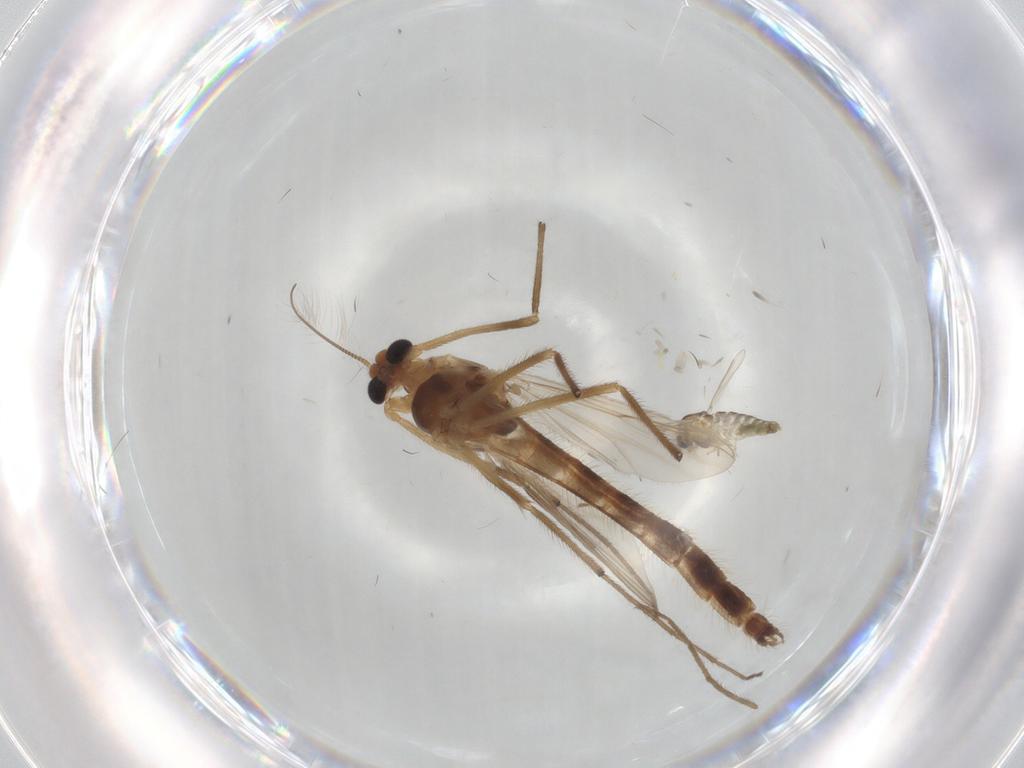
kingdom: Animalia
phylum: Arthropoda
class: Insecta
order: Diptera
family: Chironomidae
